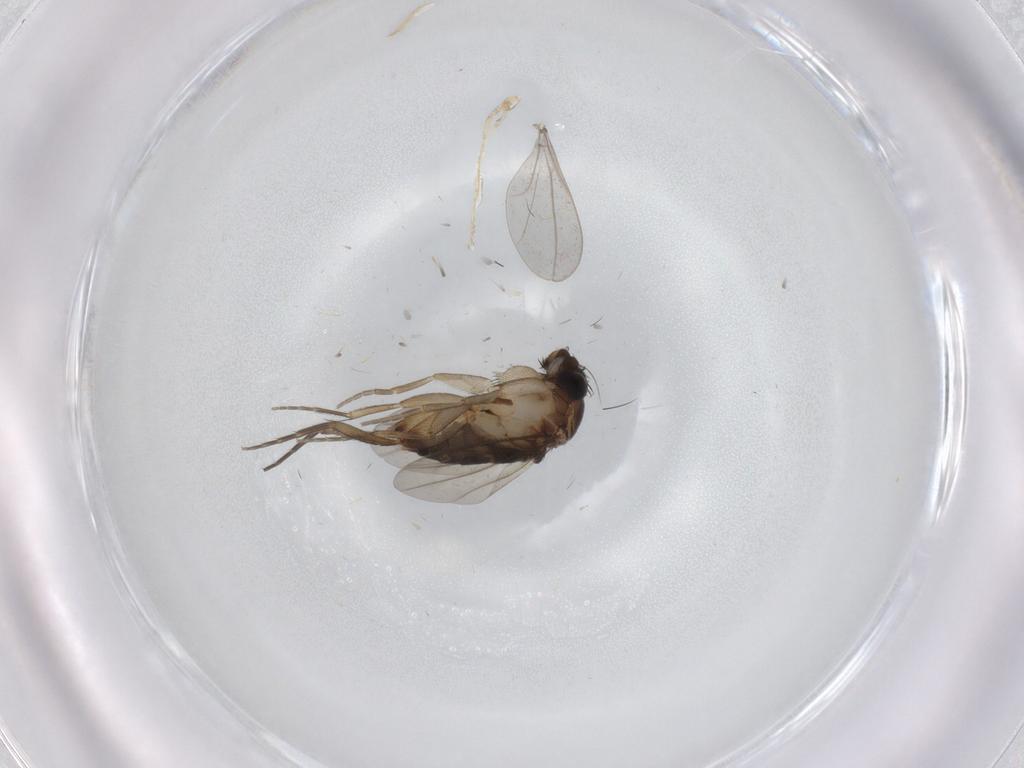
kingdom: Animalia
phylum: Arthropoda
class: Insecta
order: Diptera
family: Phoridae
